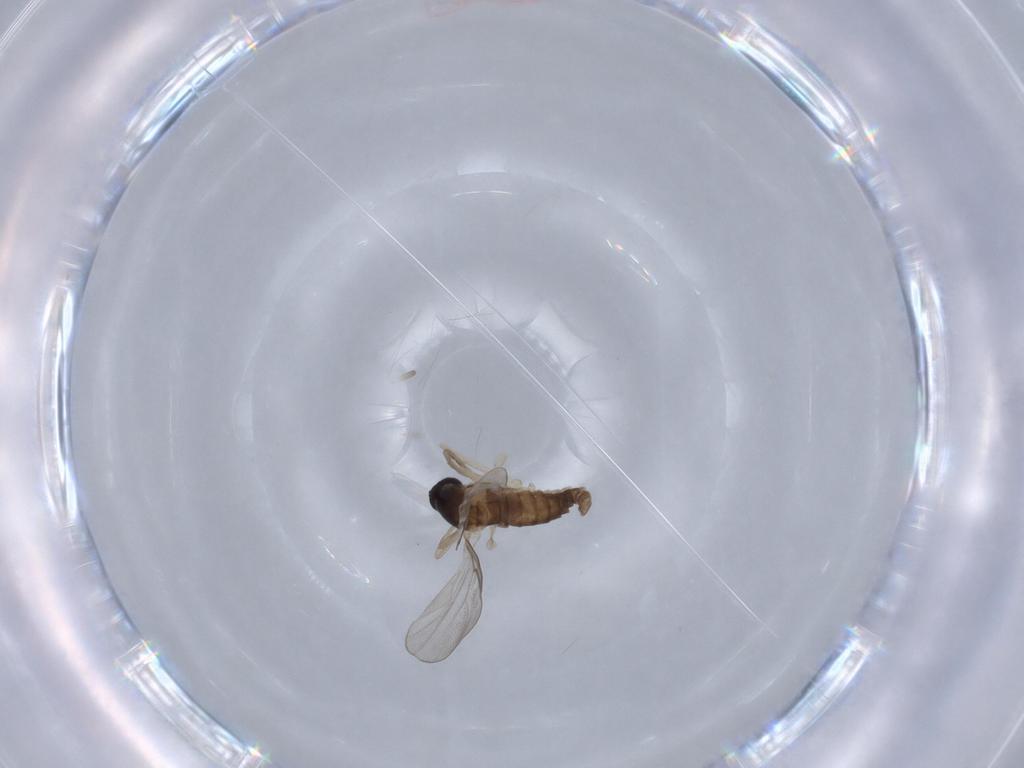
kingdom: Animalia
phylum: Arthropoda
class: Insecta
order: Diptera
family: Cecidomyiidae
